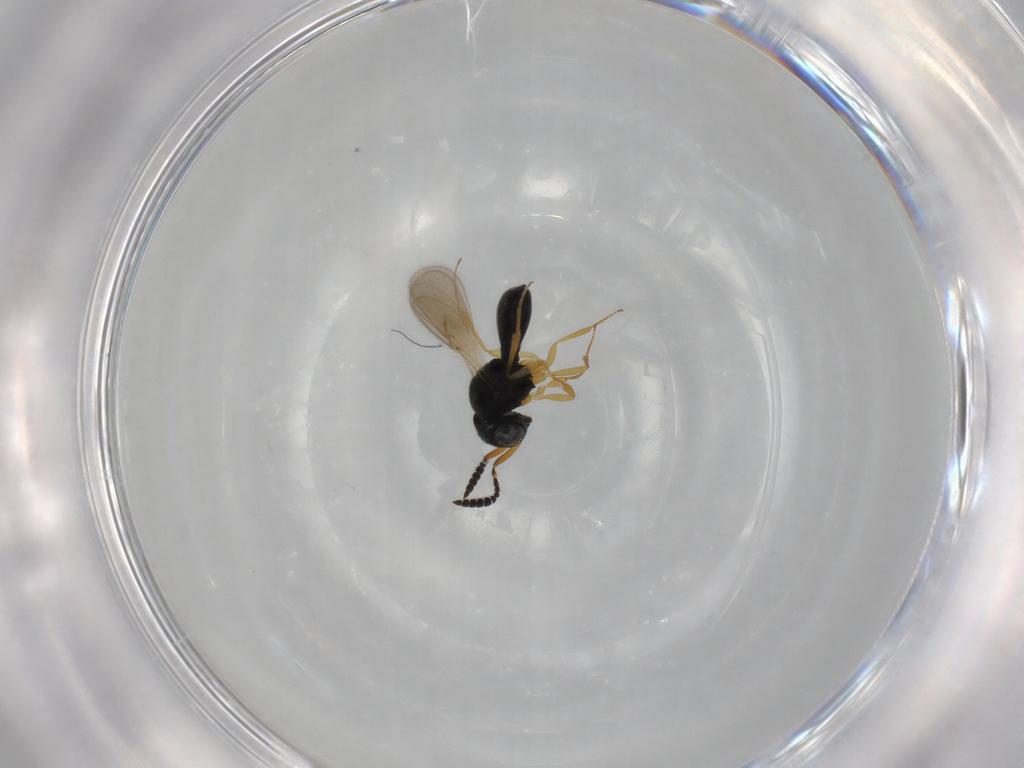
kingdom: Animalia
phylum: Arthropoda
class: Insecta
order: Hymenoptera
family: Scelionidae
